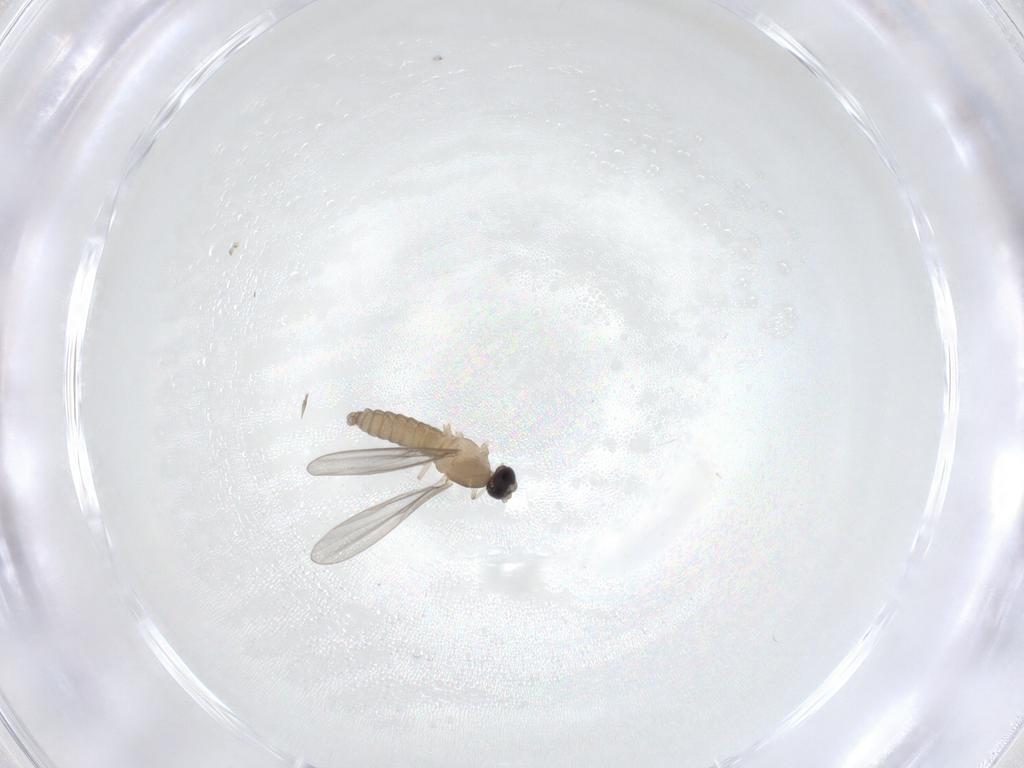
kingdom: Animalia
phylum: Arthropoda
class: Insecta
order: Diptera
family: Cecidomyiidae
